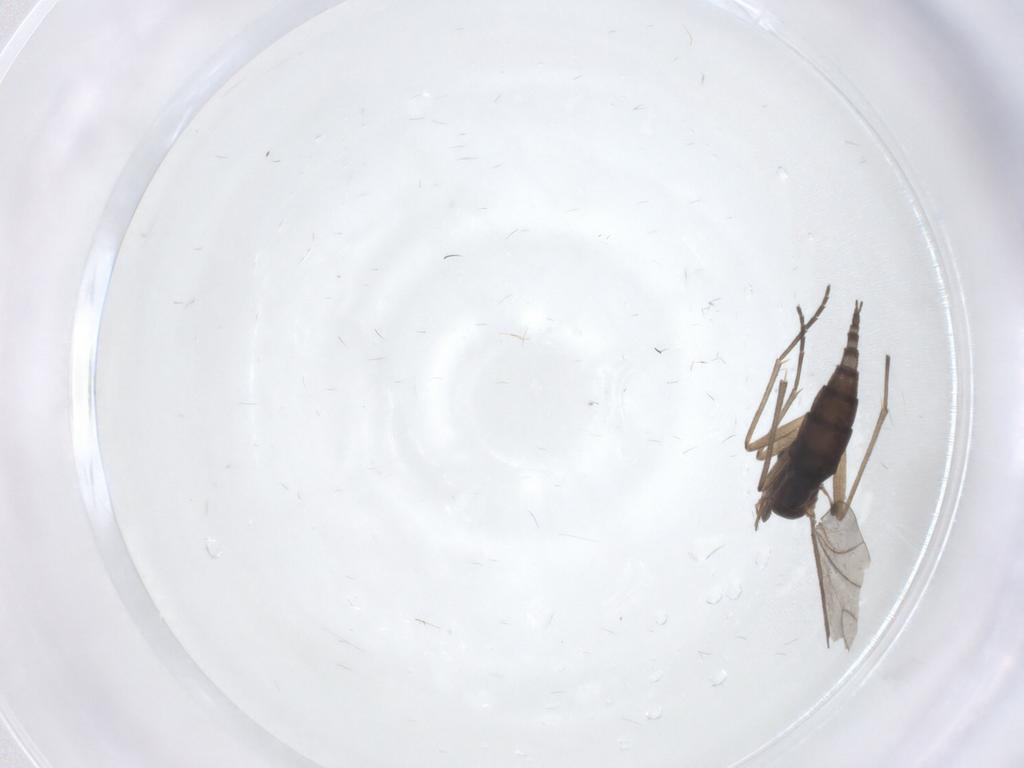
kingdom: Animalia
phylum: Arthropoda
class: Insecta
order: Diptera
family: Sciaridae
